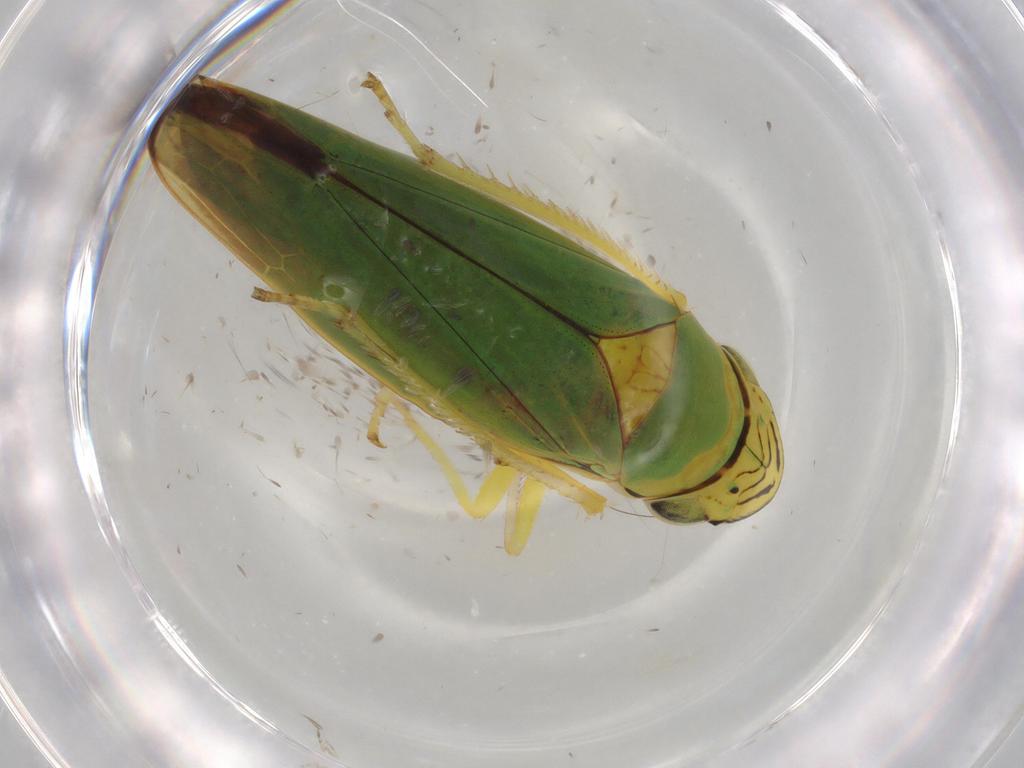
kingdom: Animalia
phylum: Arthropoda
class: Insecta
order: Hemiptera
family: Cicadellidae
